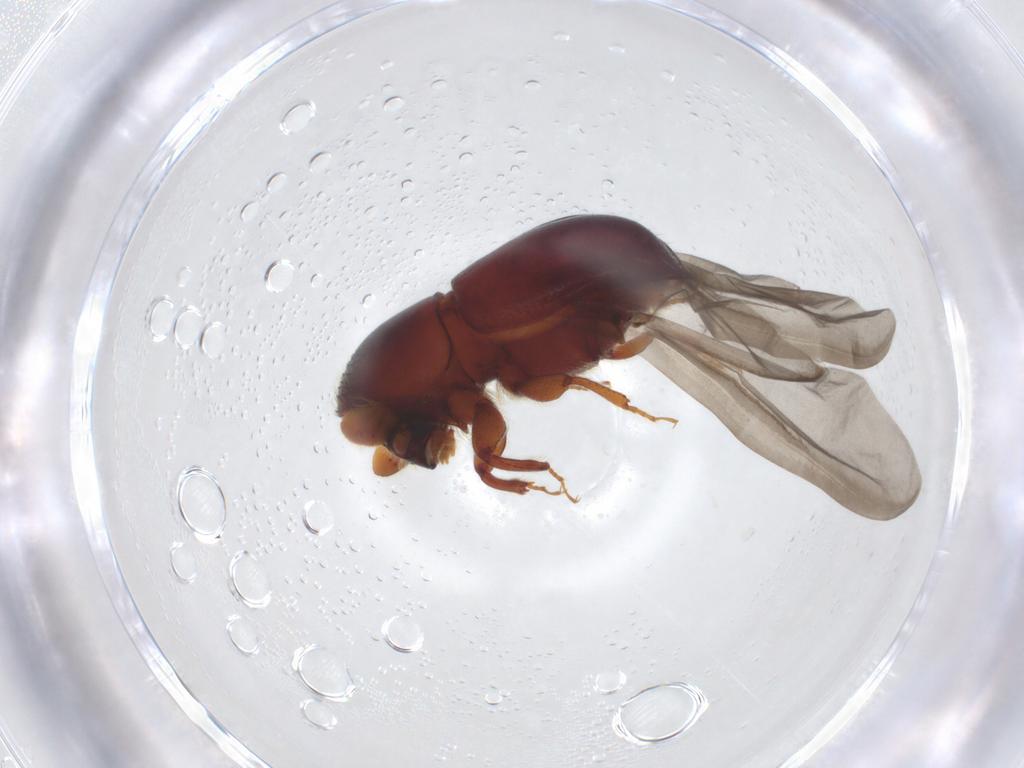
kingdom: Animalia
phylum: Arthropoda
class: Insecta
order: Coleoptera
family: Curculionidae
